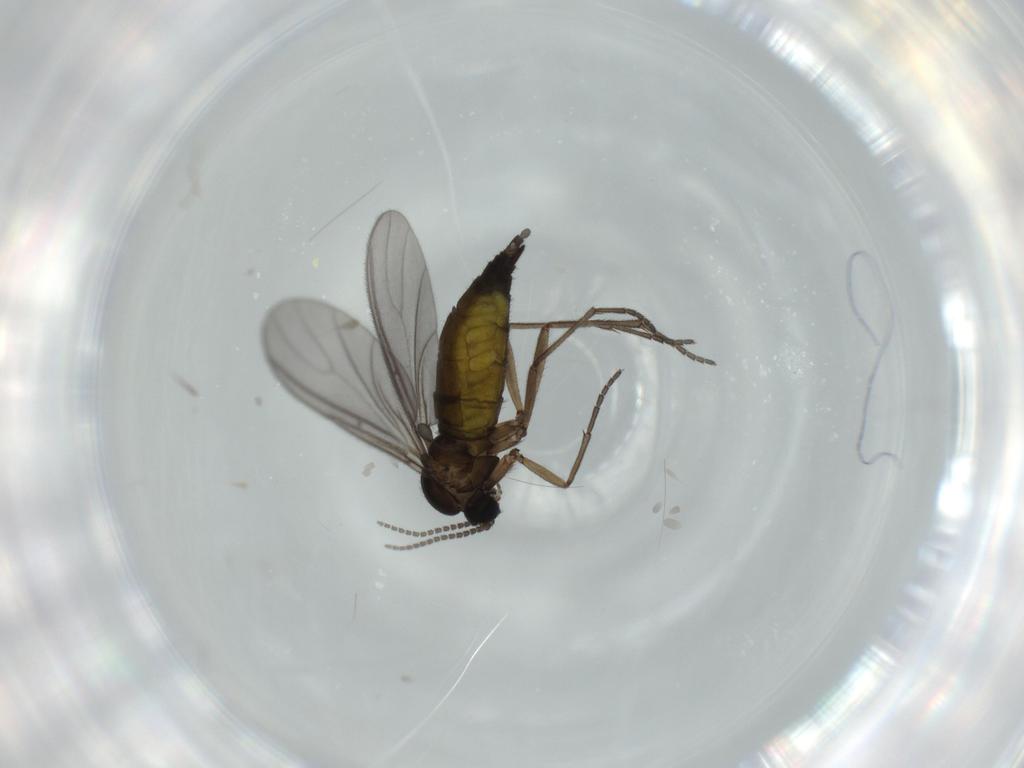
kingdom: Animalia
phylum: Arthropoda
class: Insecta
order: Diptera
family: Sciaridae
